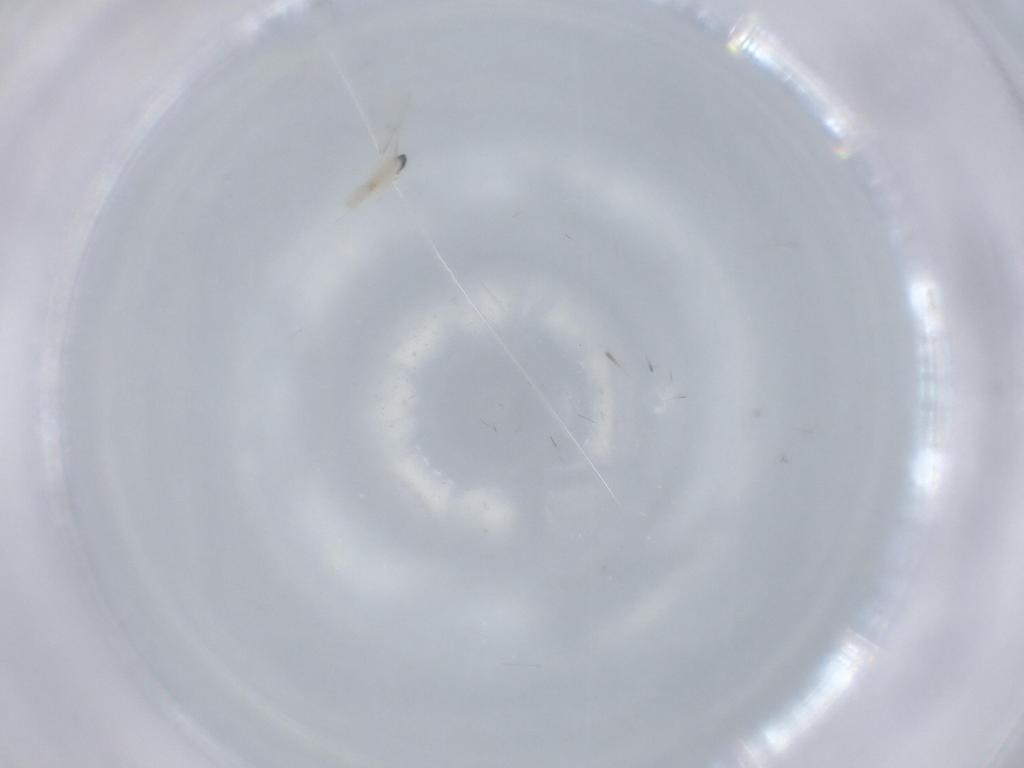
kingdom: Animalia
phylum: Arthropoda
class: Insecta
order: Diptera
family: Cecidomyiidae
